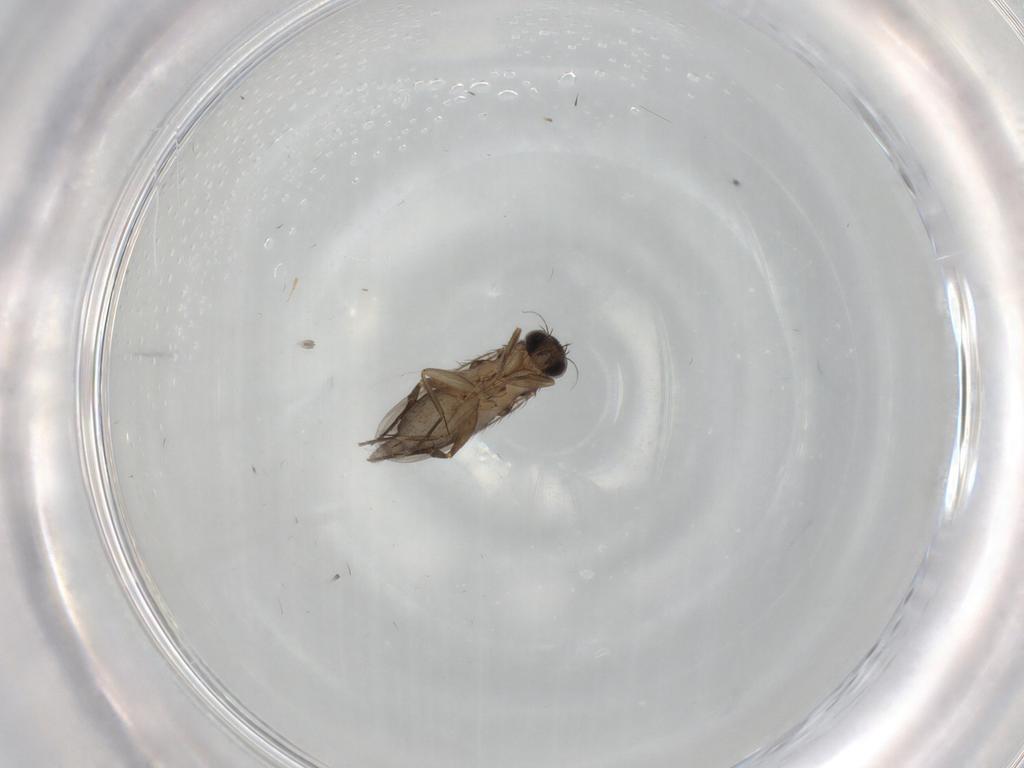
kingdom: Animalia
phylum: Arthropoda
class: Insecta
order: Diptera
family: Phoridae
